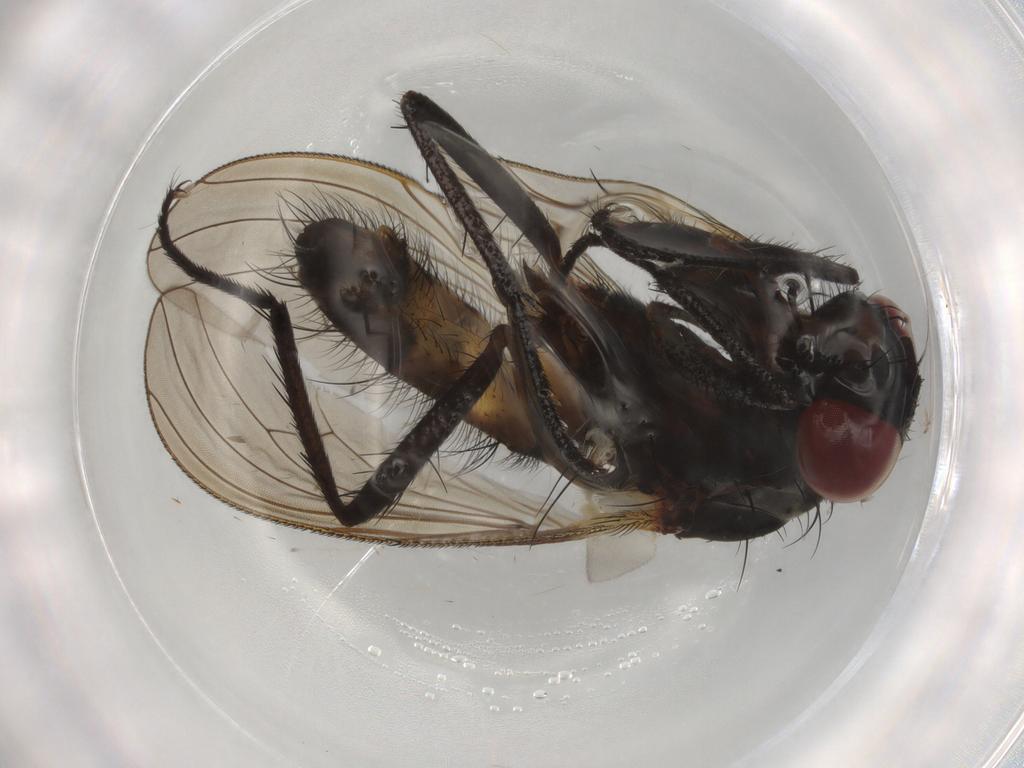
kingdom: Animalia
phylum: Arthropoda
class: Insecta
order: Diptera
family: Anthomyiidae
